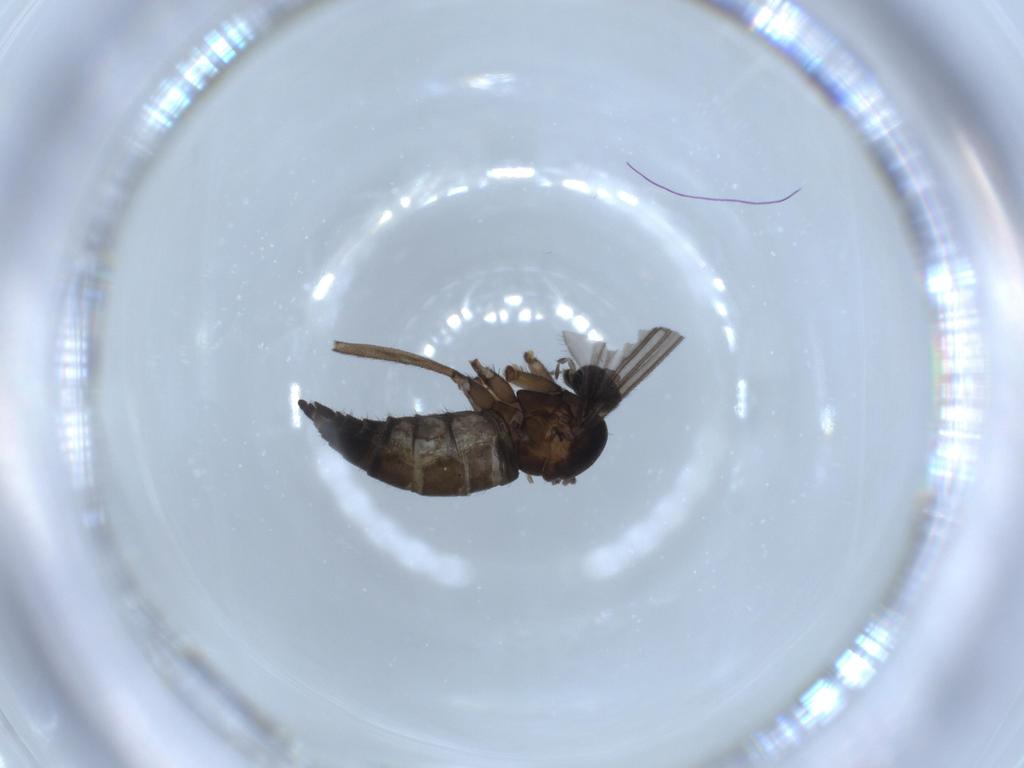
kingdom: Animalia
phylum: Arthropoda
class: Insecta
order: Diptera
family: Sciaridae
